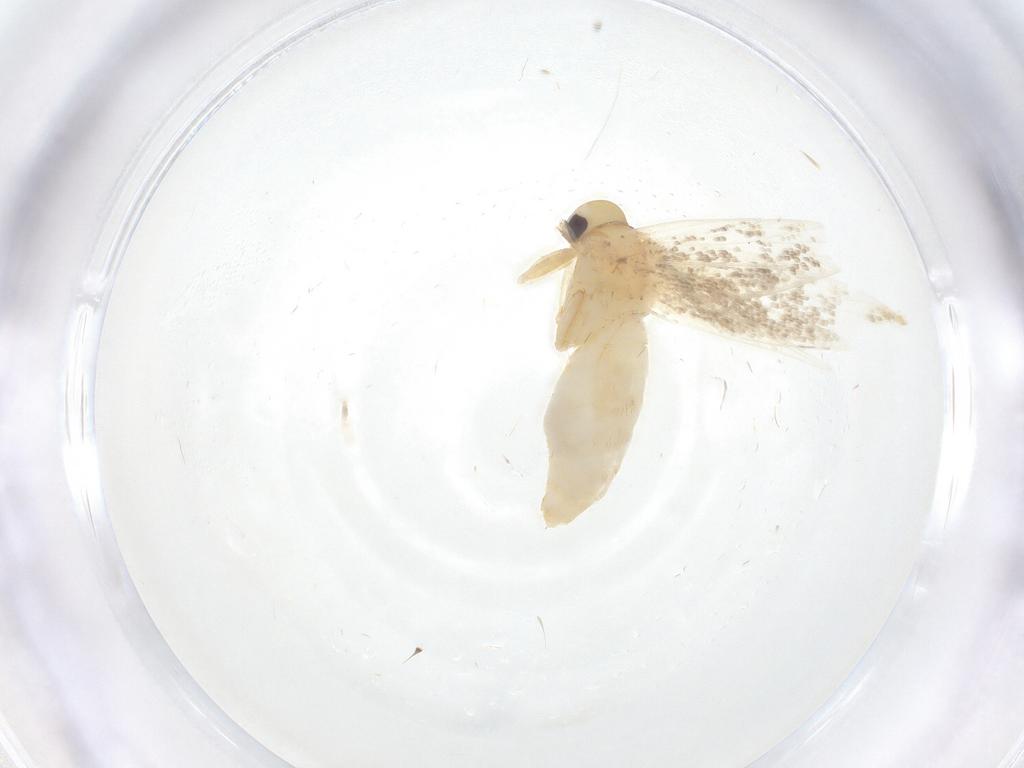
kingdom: Animalia
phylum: Arthropoda
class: Insecta
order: Lepidoptera
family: Erebidae
